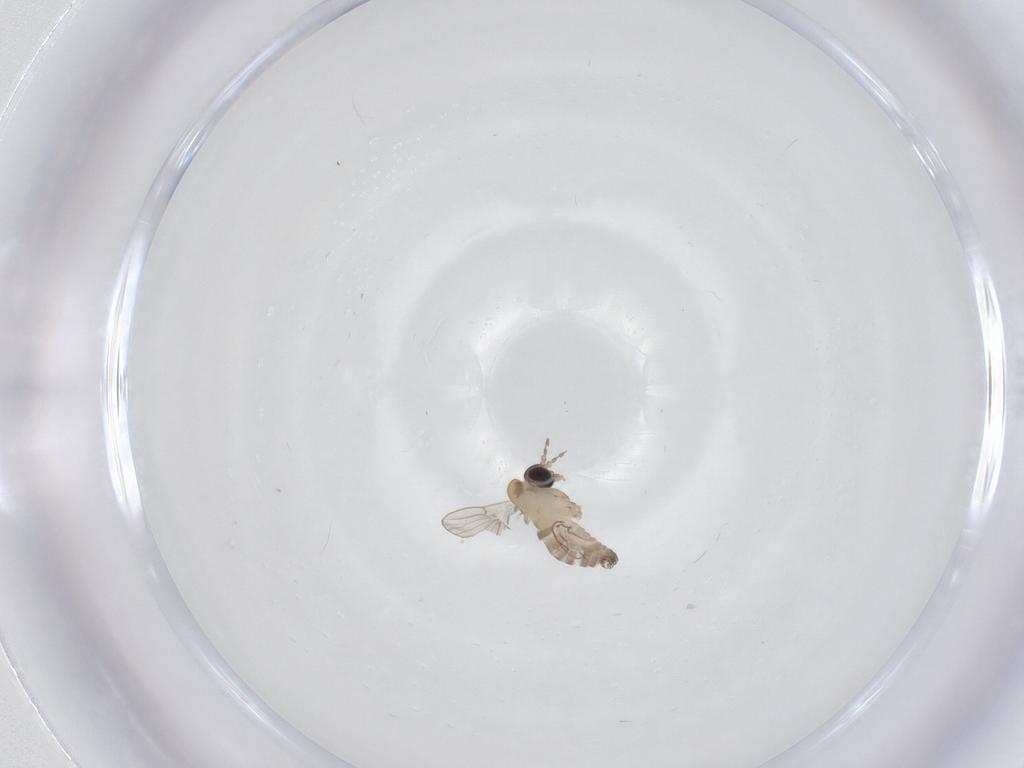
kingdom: Animalia
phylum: Arthropoda
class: Insecta
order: Diptera
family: Psychodidae
